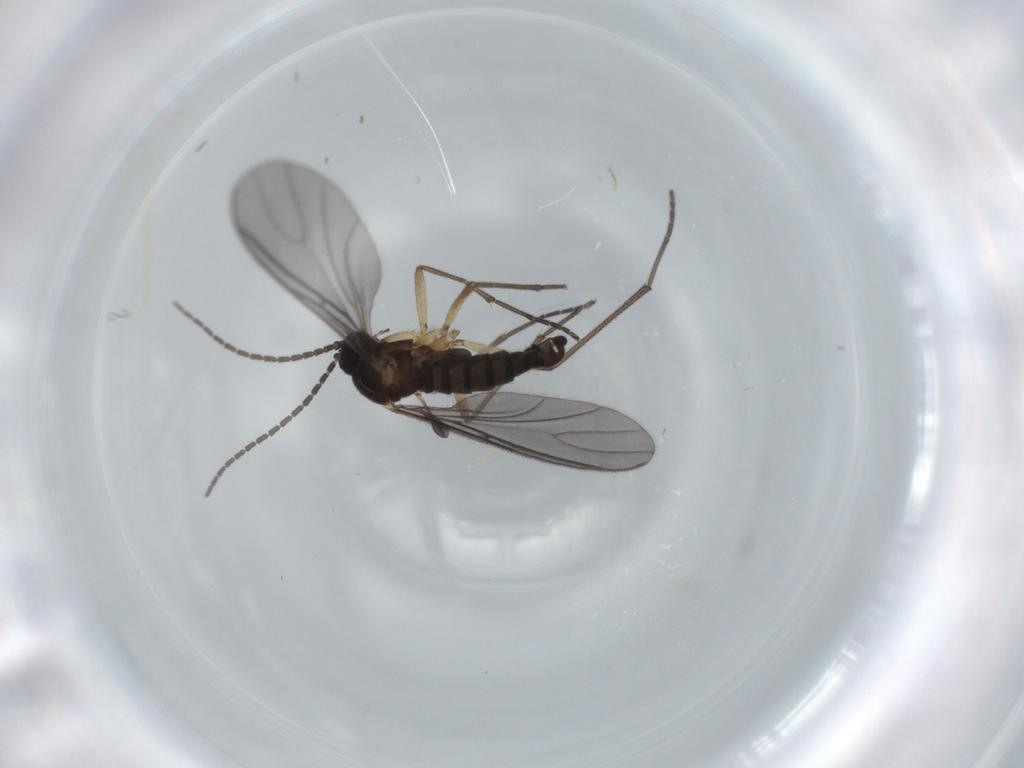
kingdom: Animalia
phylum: Arthropoda
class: Insecta
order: Diptera
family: Sciaridae
